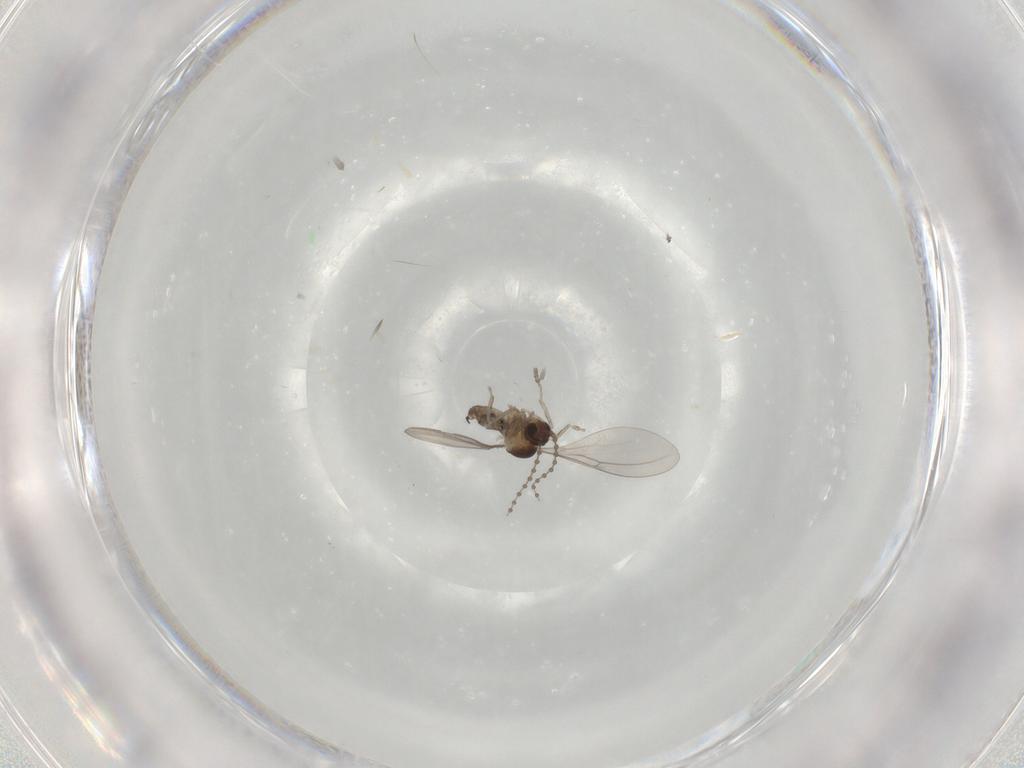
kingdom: Animalia
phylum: Arthropoda
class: Insecta
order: Diptera
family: Cecidomyiidae
